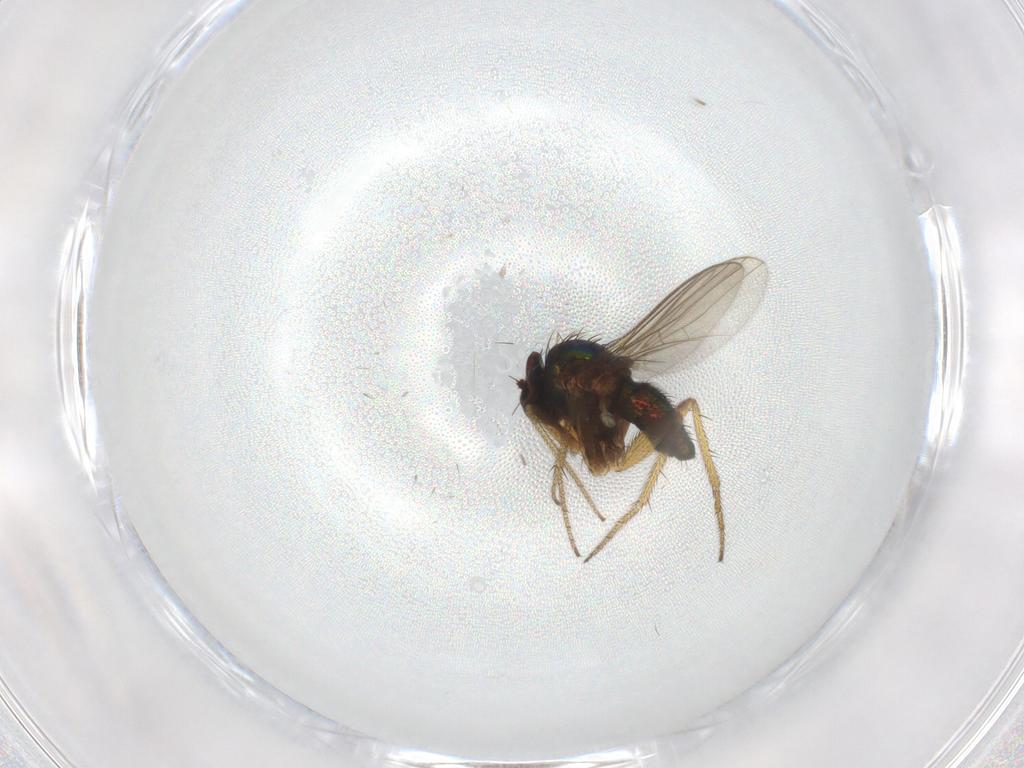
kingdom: Animalia
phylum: Arthropoda
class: Insecta
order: Diptera
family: Dolichopodidae
